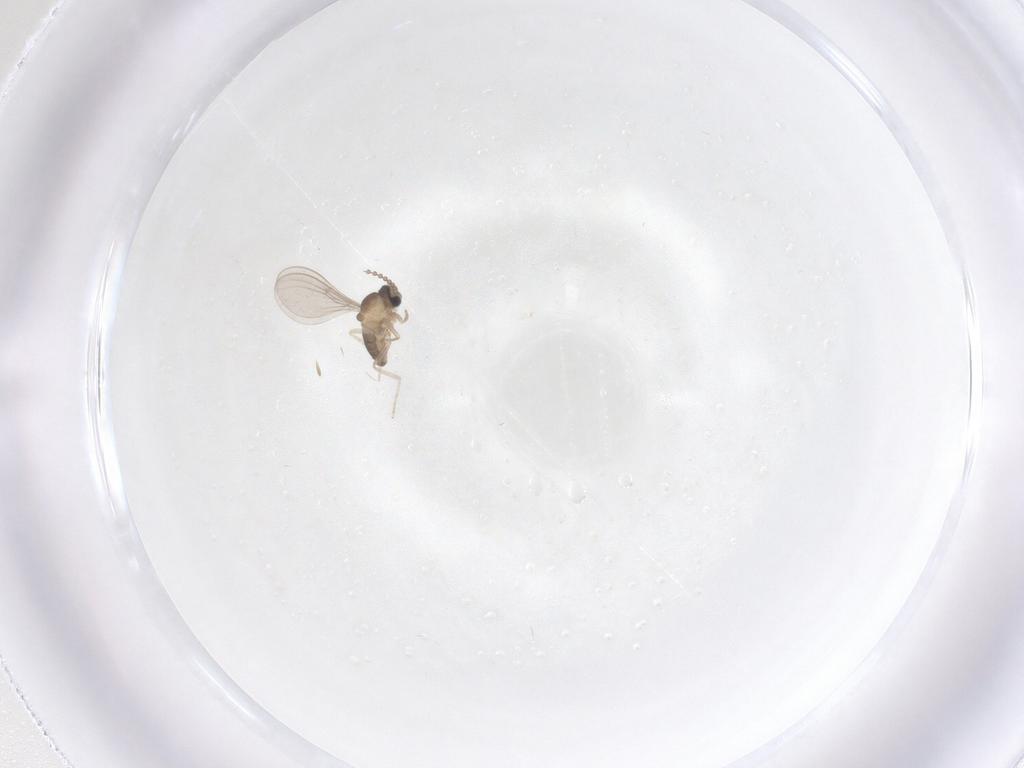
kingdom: Animalia
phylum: Arthropoda
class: Insecta
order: Diptera
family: Cecidomyiidae
